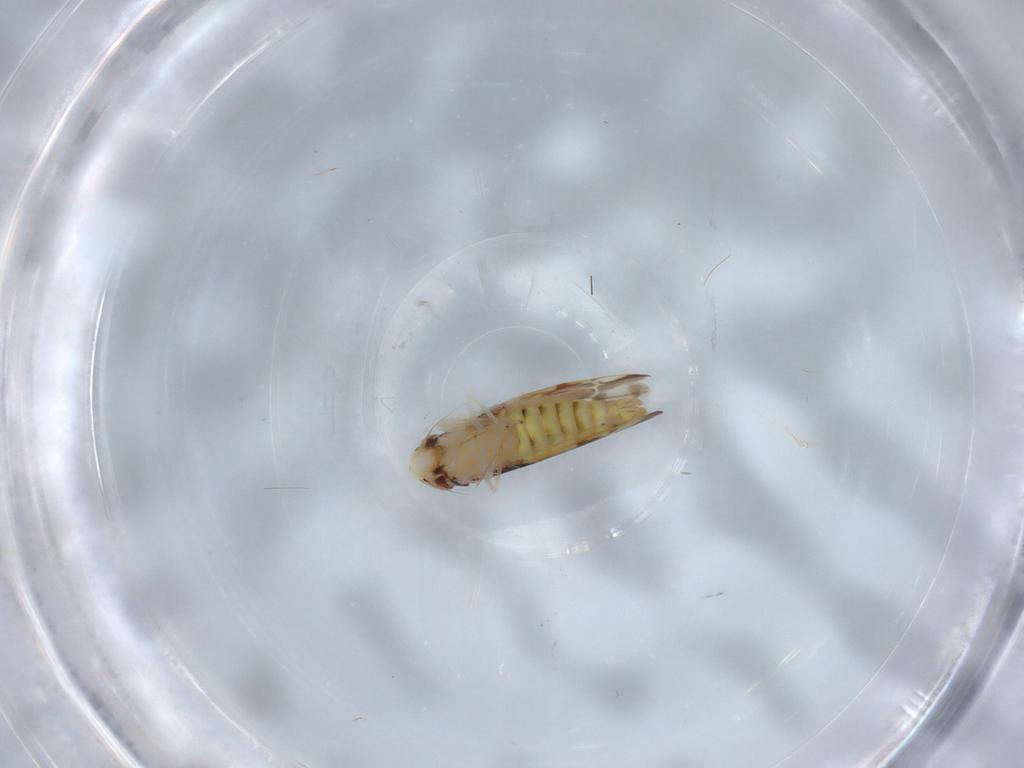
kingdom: Animalia
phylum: Arthropoda
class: Insecta
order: Hemiptera
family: Cicadellidae
